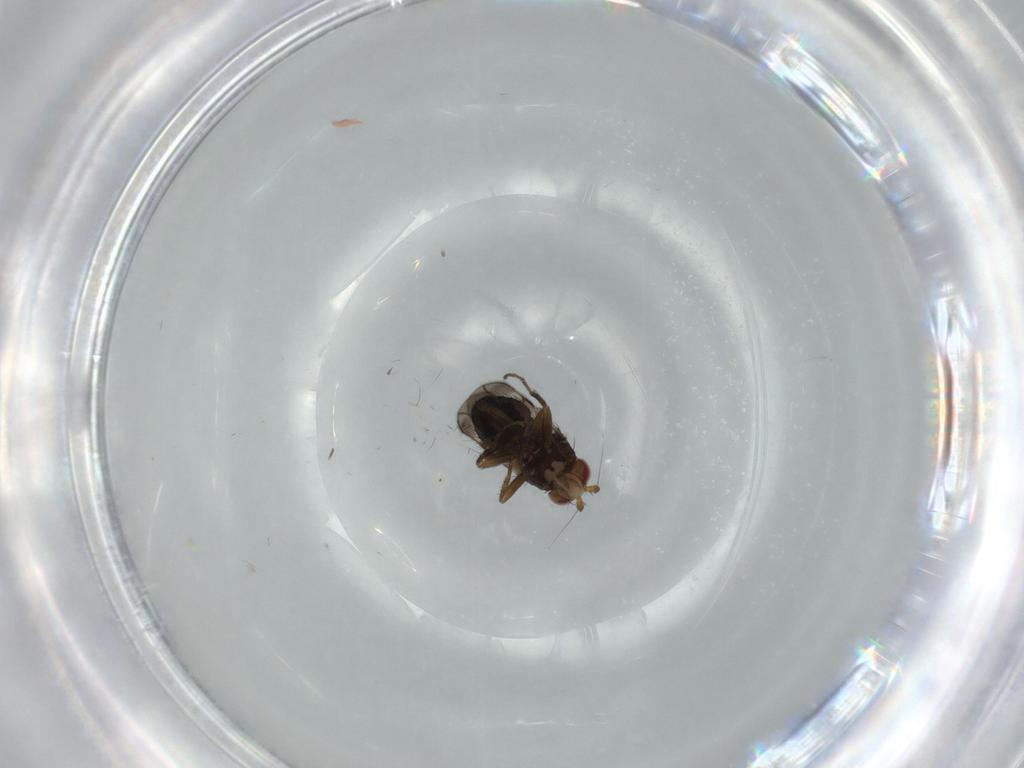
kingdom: Animalia
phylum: Arthropoda
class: Insecta
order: Diptera
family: Sphaeroceridae
